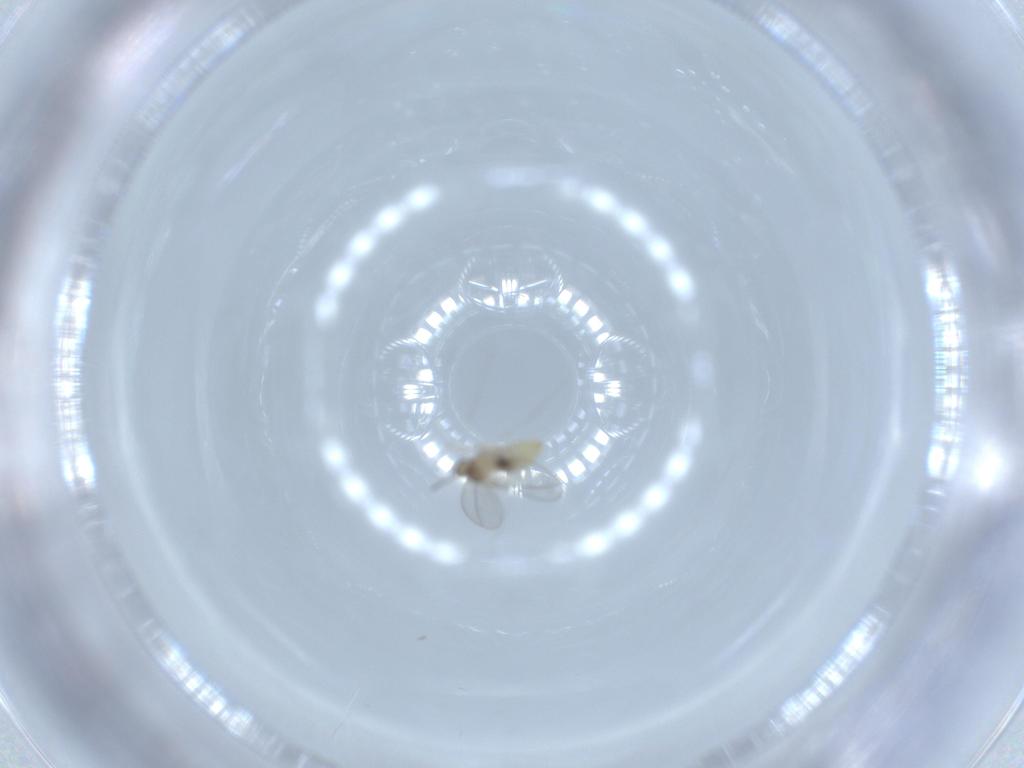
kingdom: Animalia
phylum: Arthropoda
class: Insecta
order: Diptera
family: Cecidomyiidae
